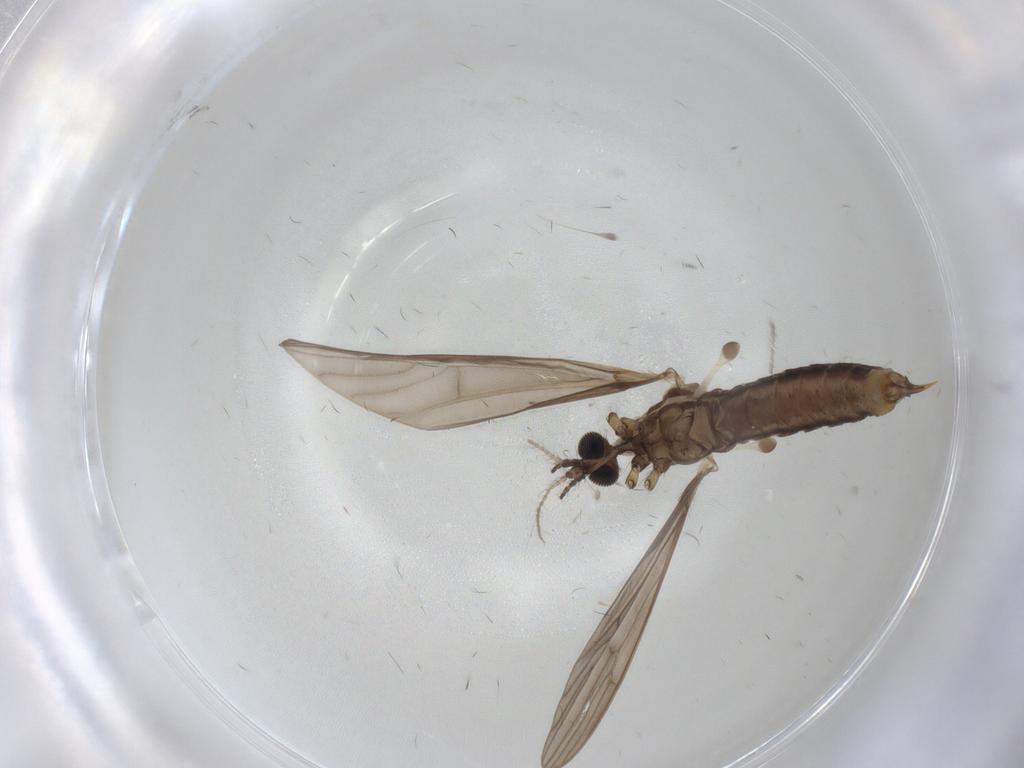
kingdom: Animalia
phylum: Arthropoda
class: Insecta
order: Diptera
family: Limoniidae
